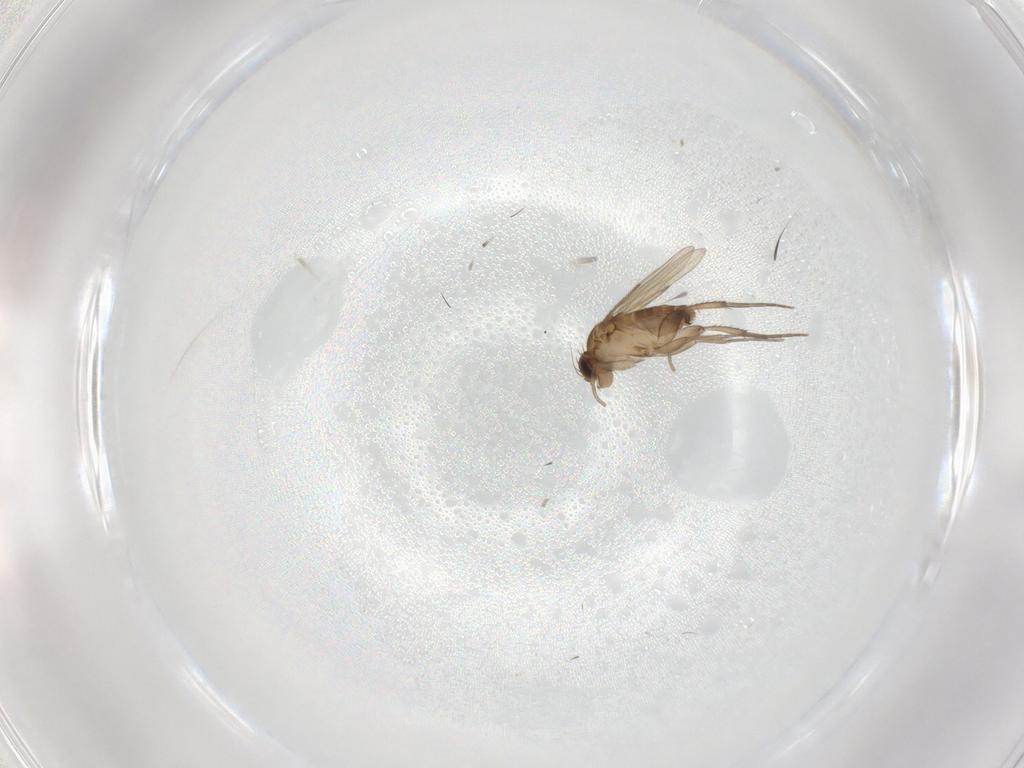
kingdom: Animalia
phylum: Arthropoda
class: Insecta
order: Diptera
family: Phoridae
